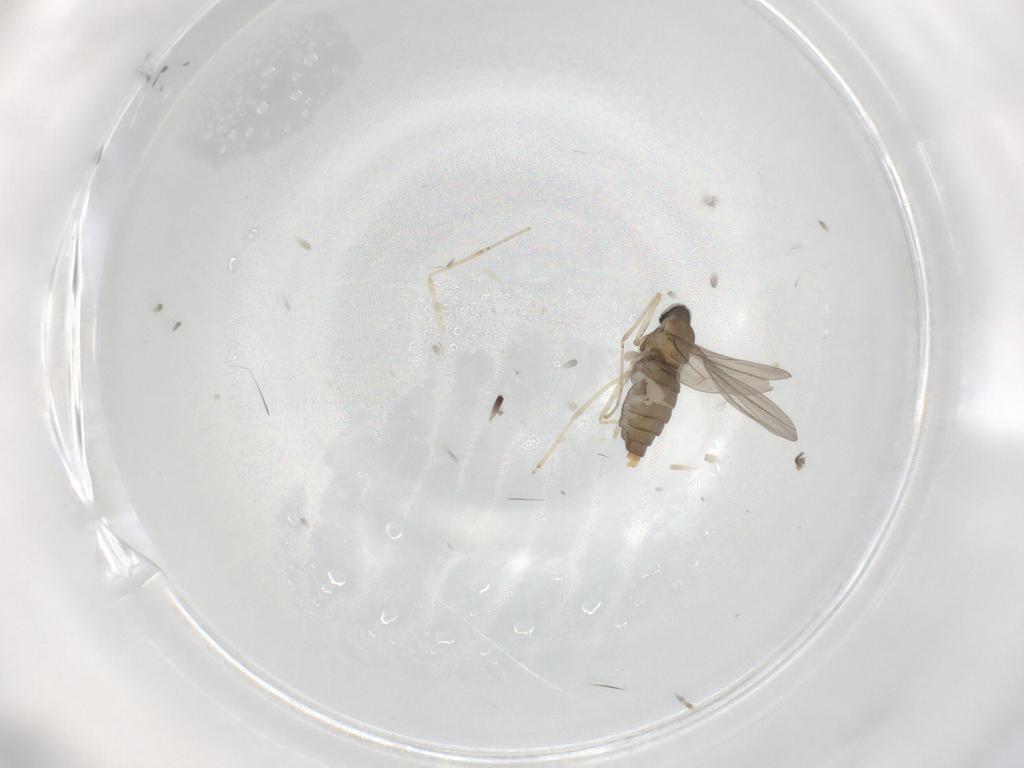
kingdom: Animalia
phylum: Arthropoda
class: Insecta
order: Diptera
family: Cecidomyiidae
